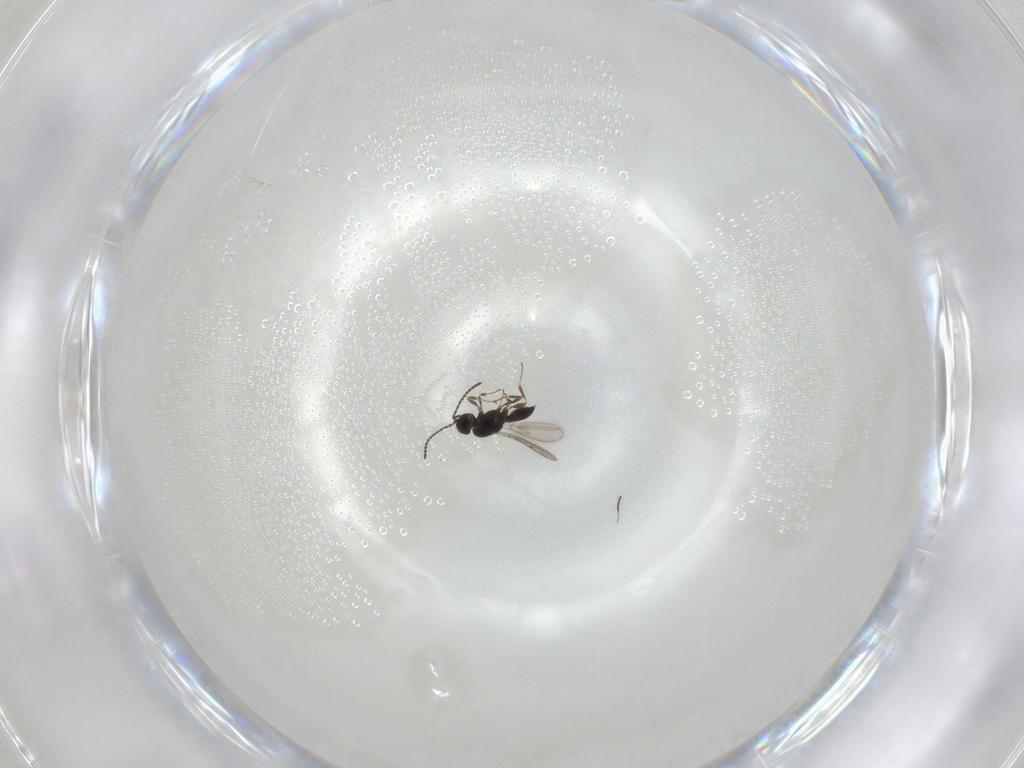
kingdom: Animalia
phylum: Arthropoda
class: Insecta
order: Hymenoptera
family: Scelionidae
